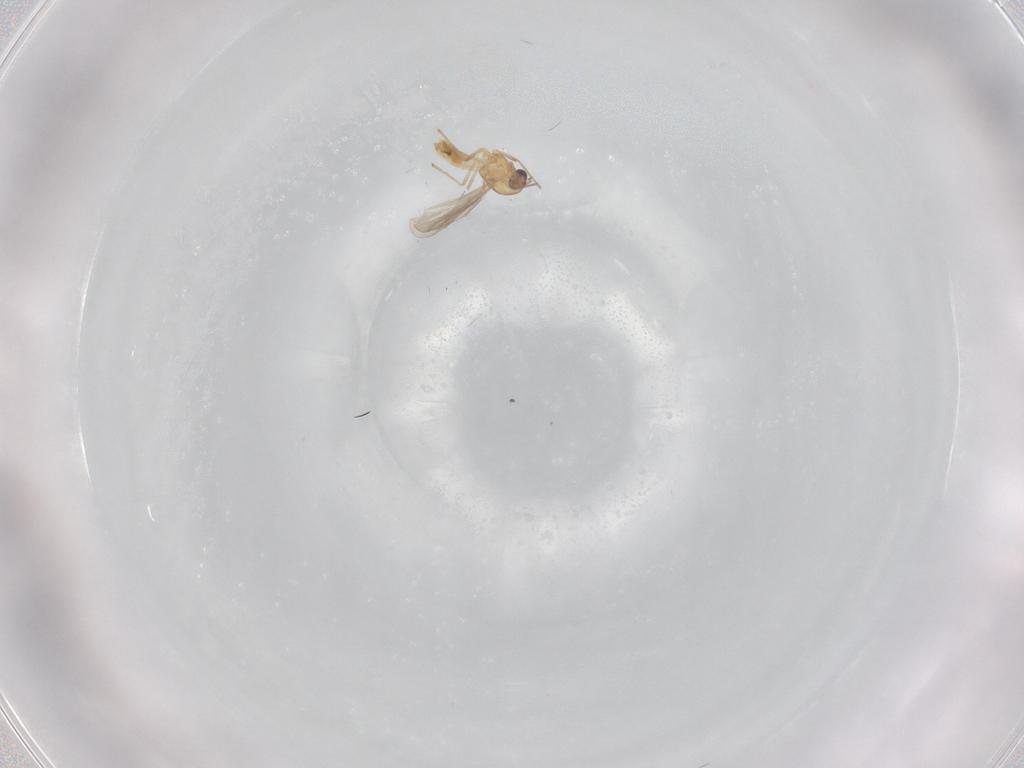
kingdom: Animalia
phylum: Arthropoda
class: Insecta
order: Diptera
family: Chironomidae
